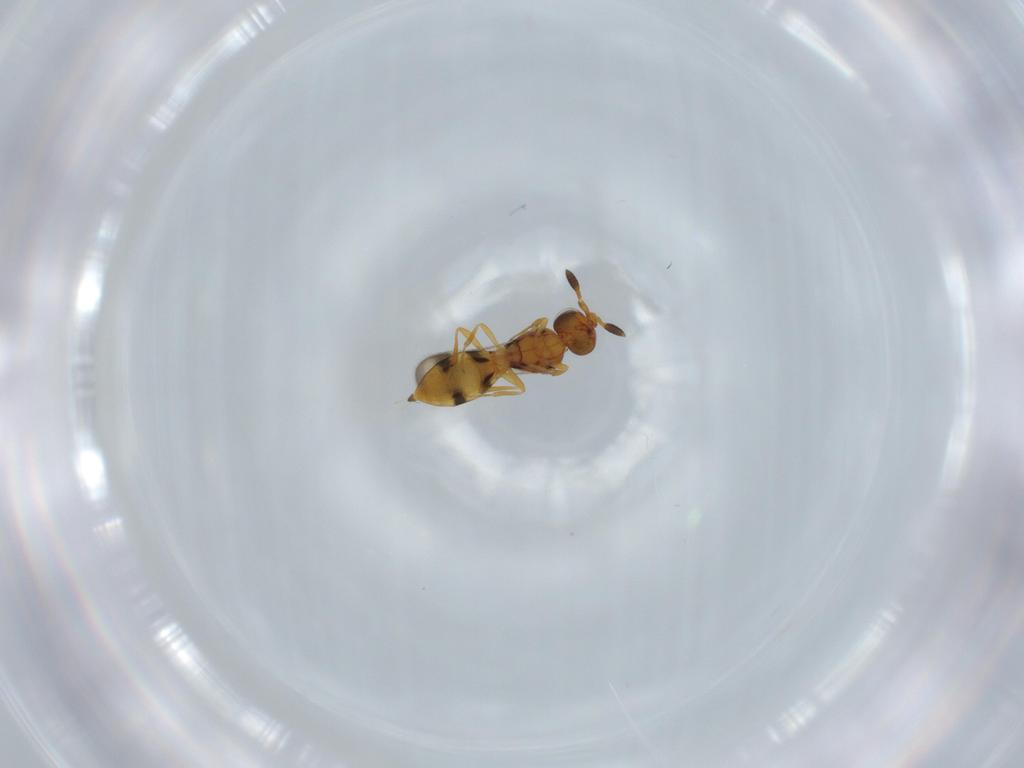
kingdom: Animalia
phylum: Arthropoda
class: Insecta
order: Hymenoptera
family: Scelionidae
